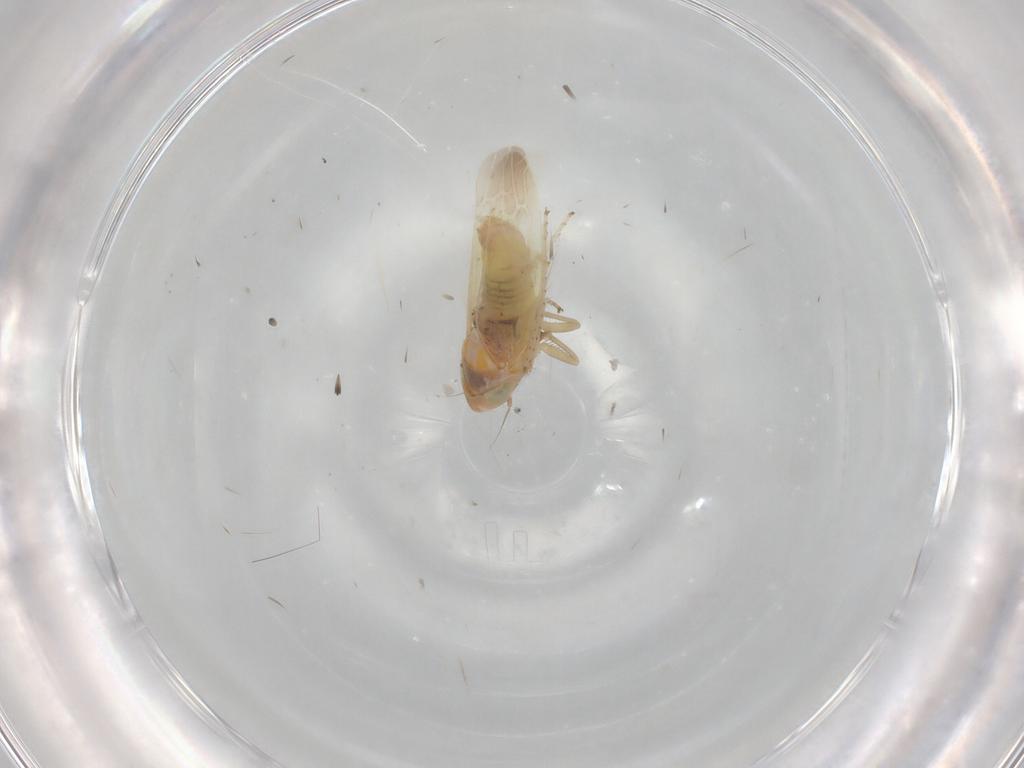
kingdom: Animalia
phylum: Arthropoda
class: Insecta
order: Hemiptera
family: Cicadellidae
